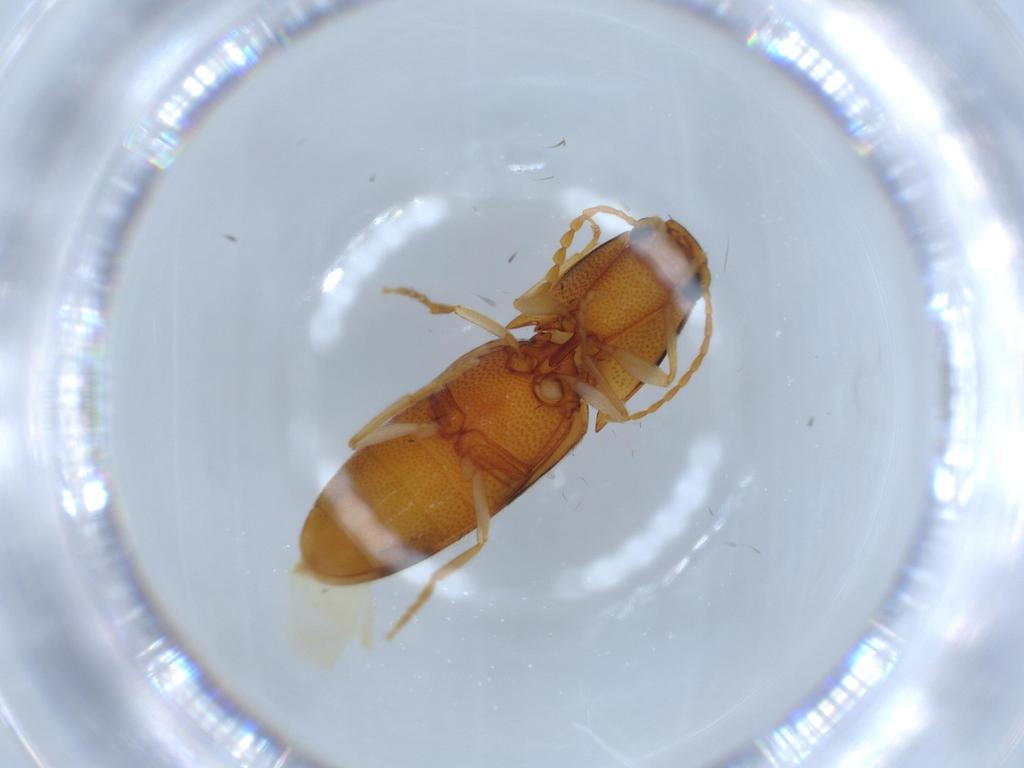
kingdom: Animalia
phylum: Arthropoda
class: Insecta
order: Coleoptera
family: Elateridae
